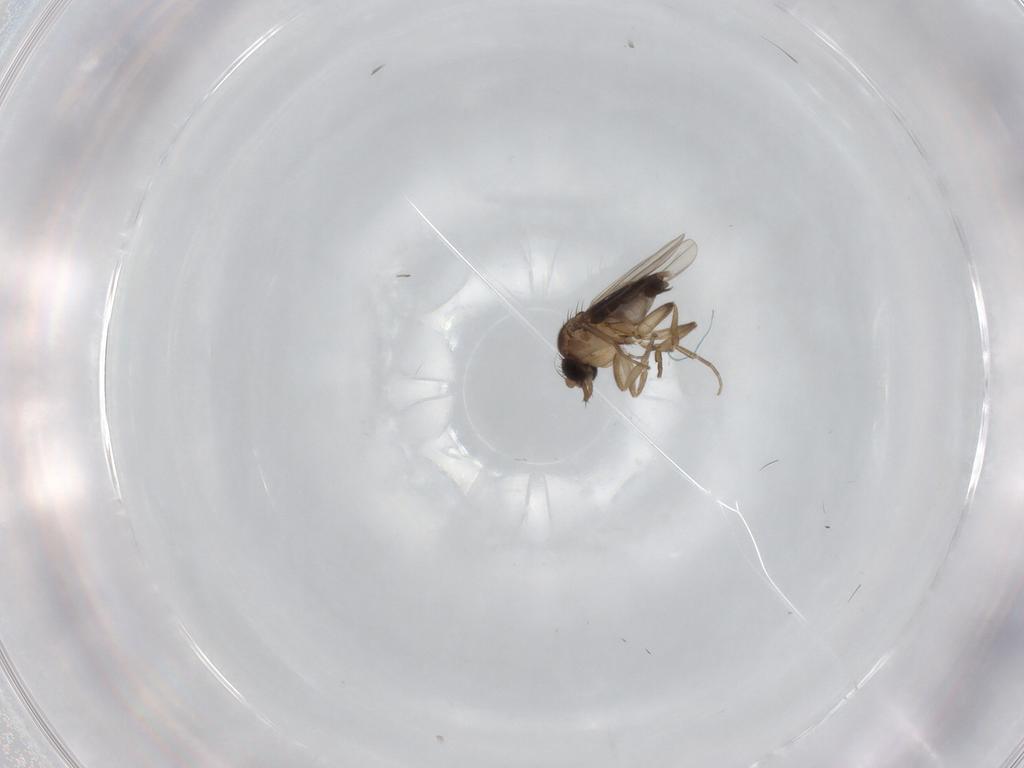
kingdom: Animalia
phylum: Arthropoda
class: Insecta
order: Diptera
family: Phoridae
